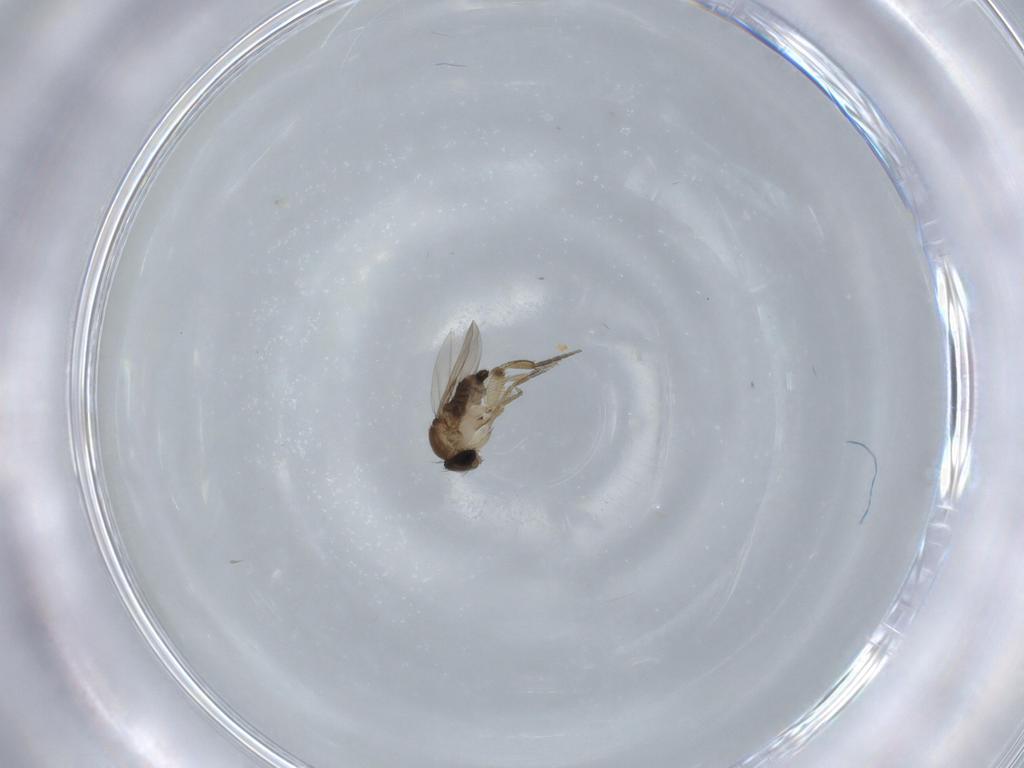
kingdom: Animalia
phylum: Arthropoda
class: Insecta
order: Diptera
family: Phoridae
